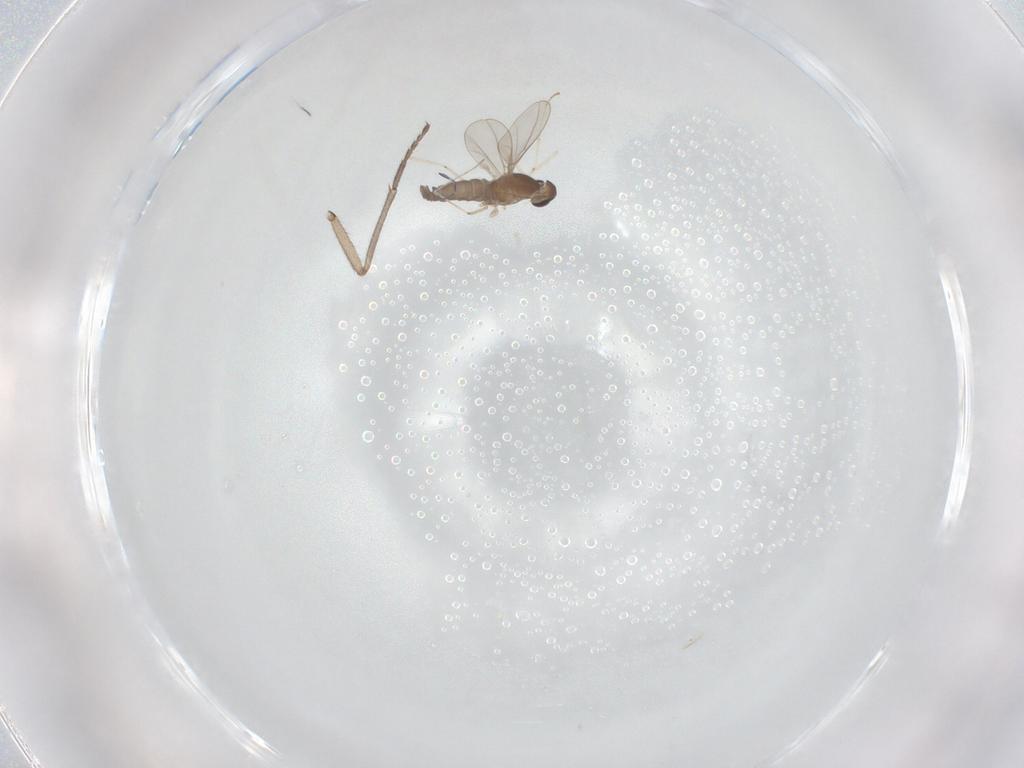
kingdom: Animalia
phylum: Arthropoda
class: Insecta
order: Diptera
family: Cecidomyiidae
